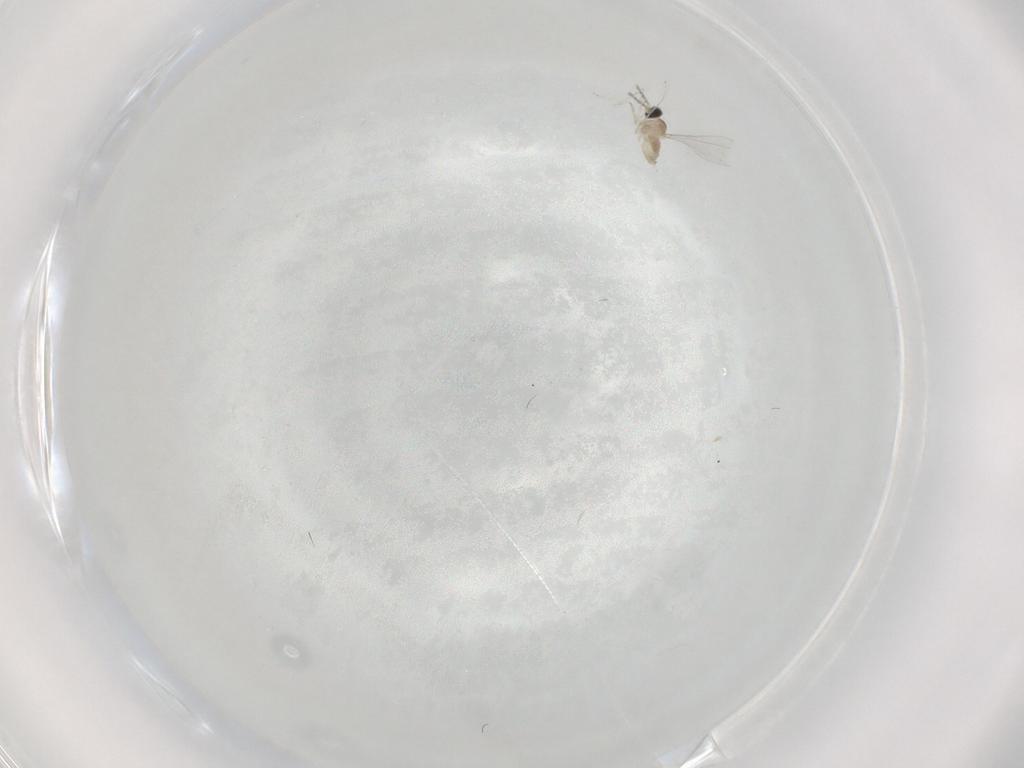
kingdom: Animalia
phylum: Arthropoda
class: Insecta
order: Diptera
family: Cecidomyiidae
